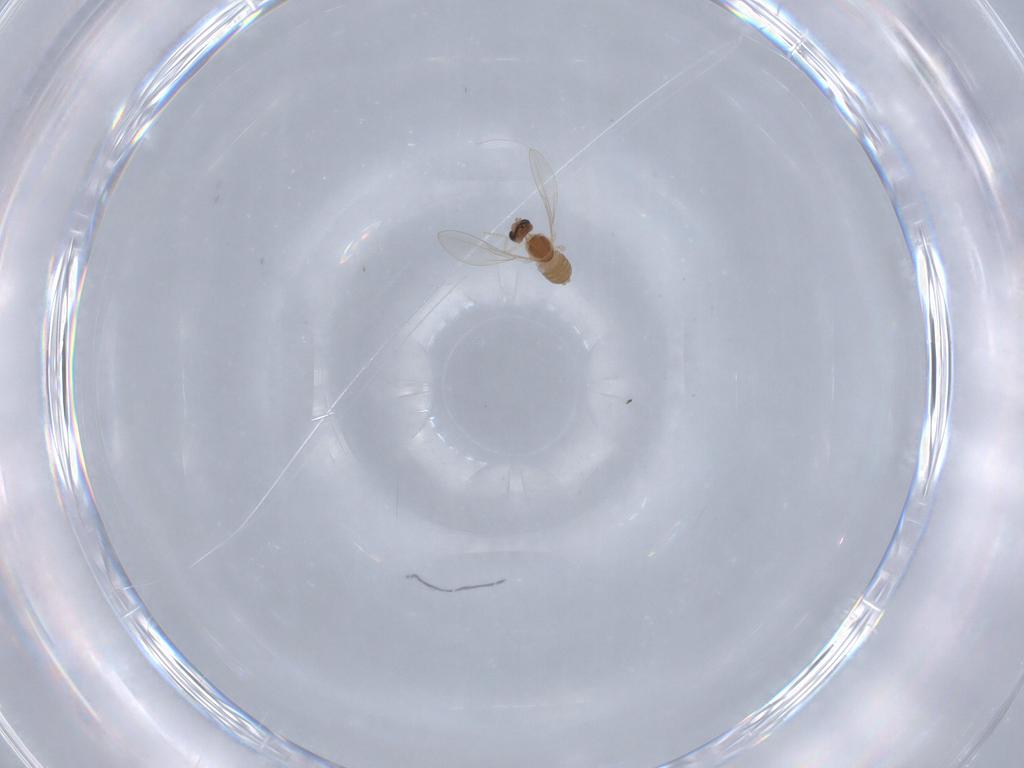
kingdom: Animalia
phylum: Arthropoda
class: Insecta
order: Diptera
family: Cecidomyiidae
